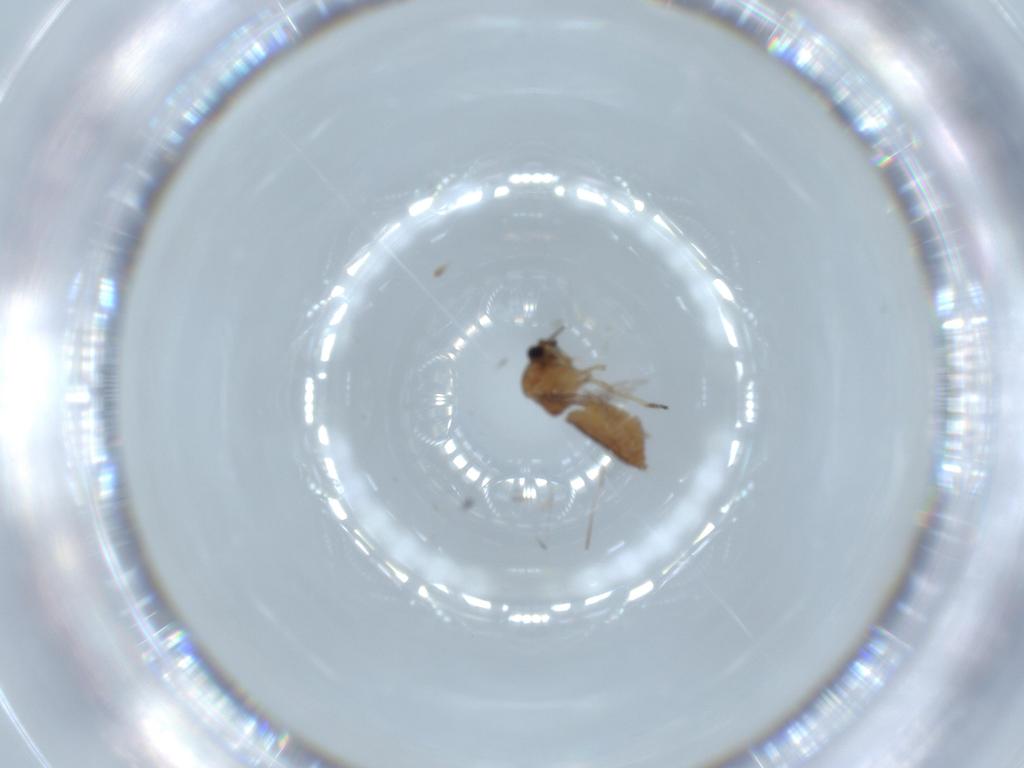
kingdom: Animalia
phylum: Arthropoda
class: Insecta
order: Diptera
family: Ceratopogonidae
